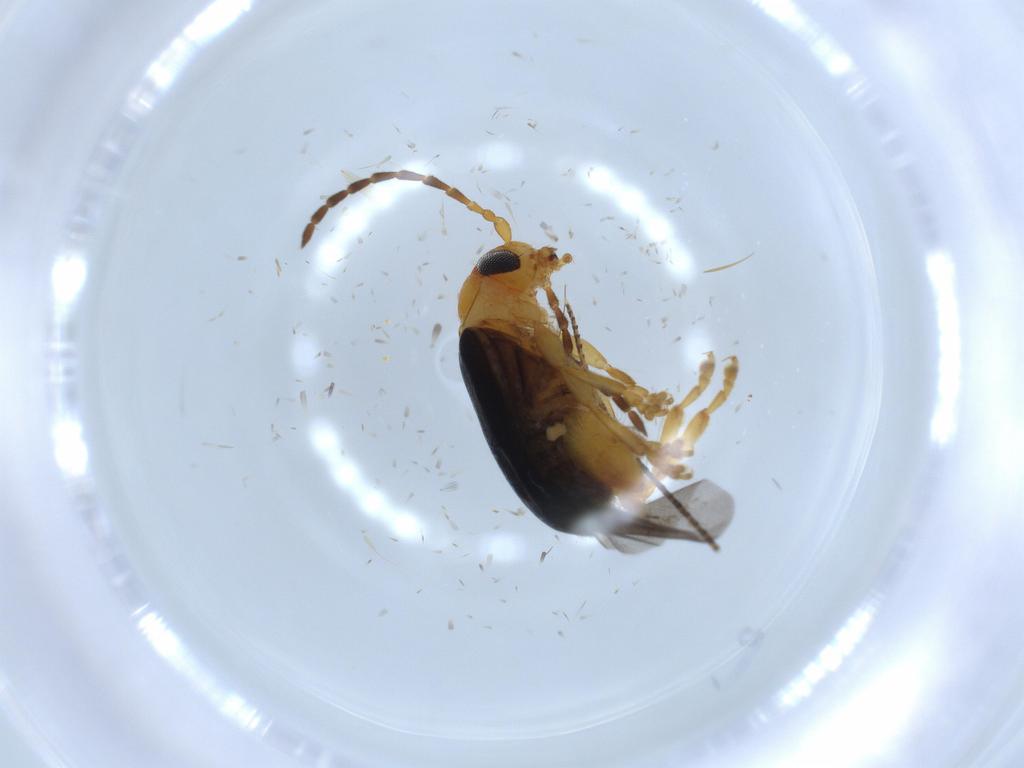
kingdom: Animalia
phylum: Arthropoda
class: Insecta
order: Coleoptera
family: Chrysomelidae
